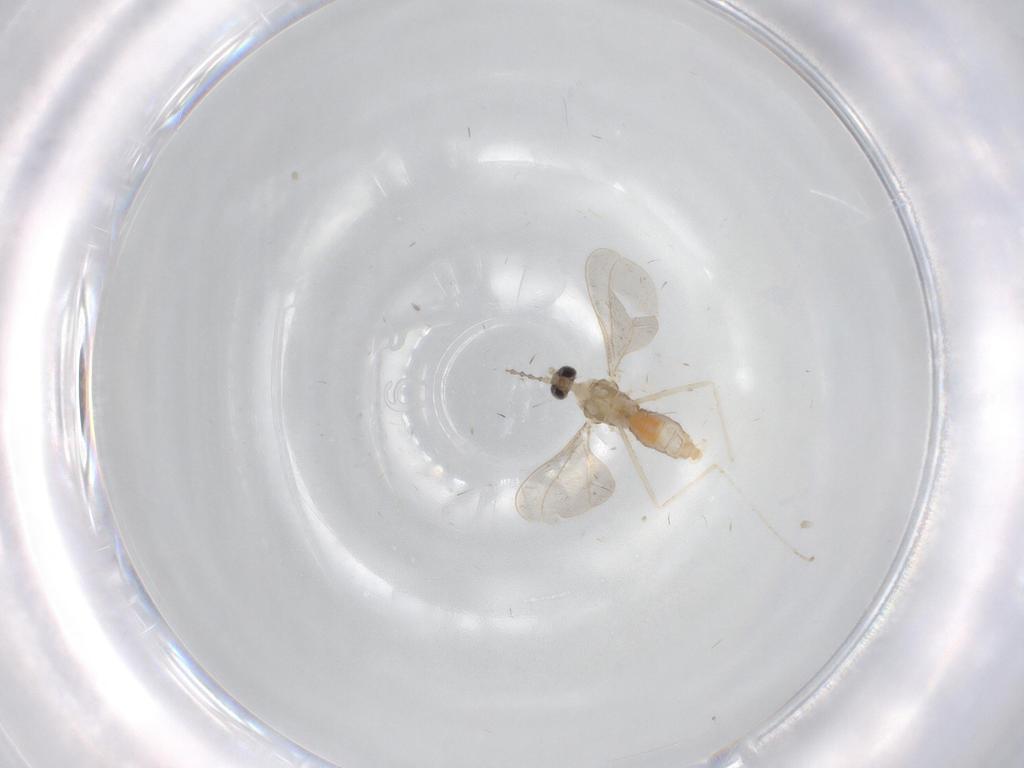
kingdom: Animalia
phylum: Arthropoda
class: Insecta
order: Diptera
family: Cecidomyiidae
